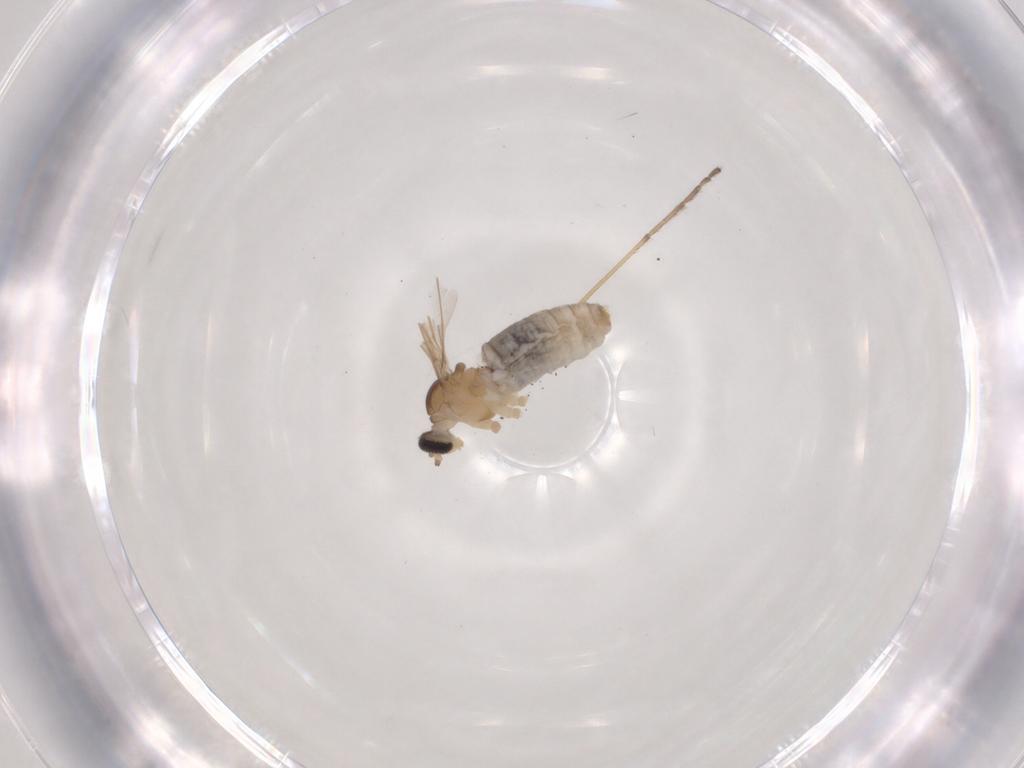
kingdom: Animalia
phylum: Arthropoda
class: Insecta
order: Diptera
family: Cecidomyiidae
